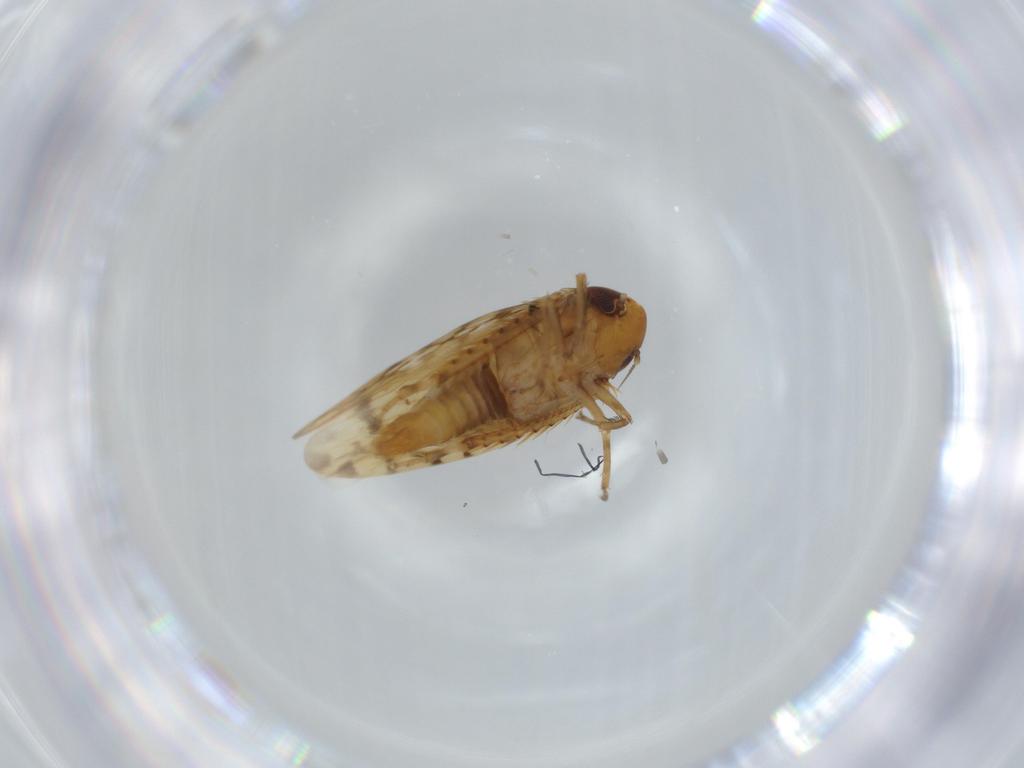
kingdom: Animalia
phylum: Arthropoda
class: Insecta
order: Hemiptera
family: Cicadellidae
